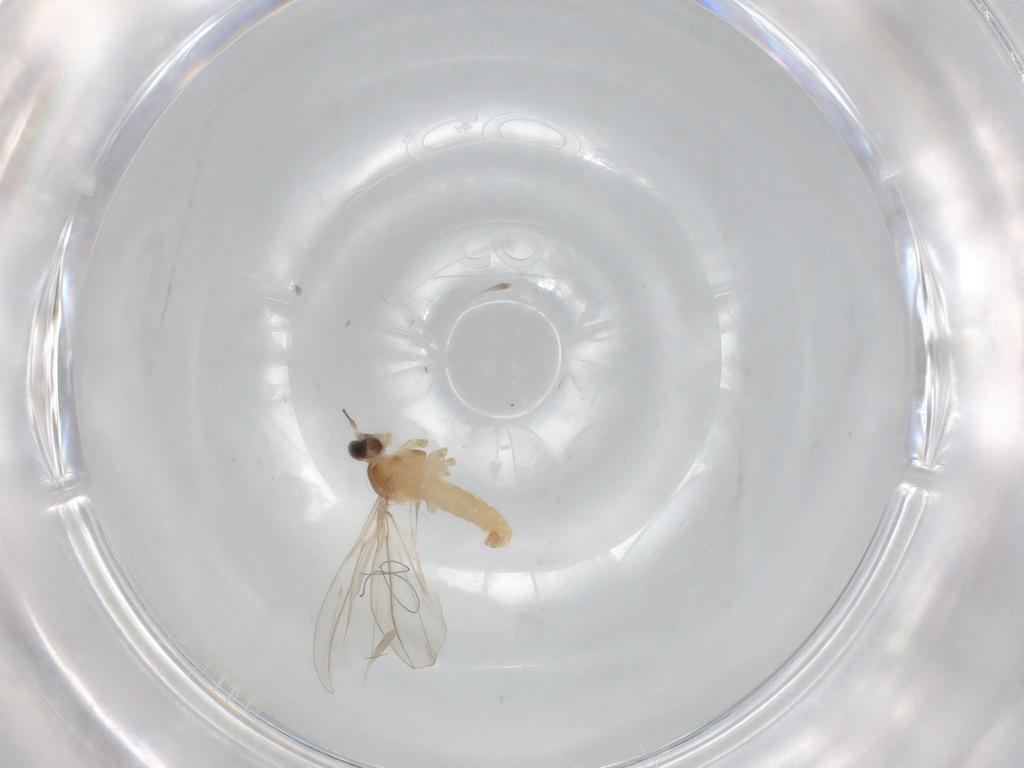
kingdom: Animalia
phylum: Arthropoda
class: Insecta
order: Diptera
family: Cecidomyiidae
